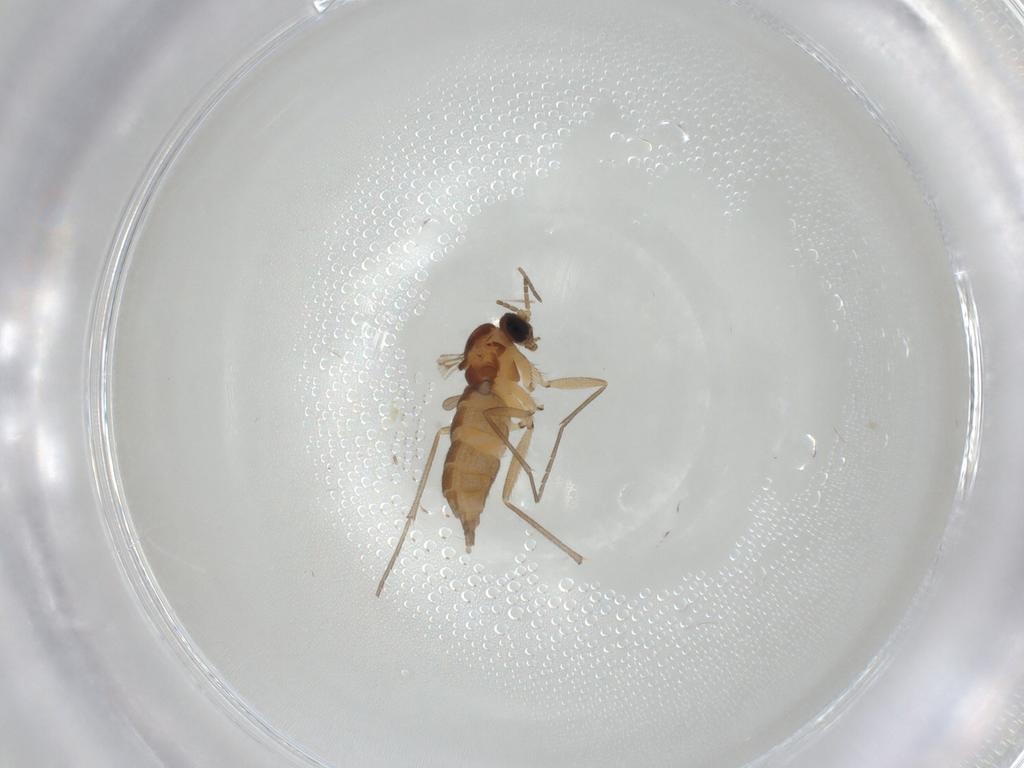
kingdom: Animalia
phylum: Arthropoda
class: Insecta
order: Diptera
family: Sciaridae
